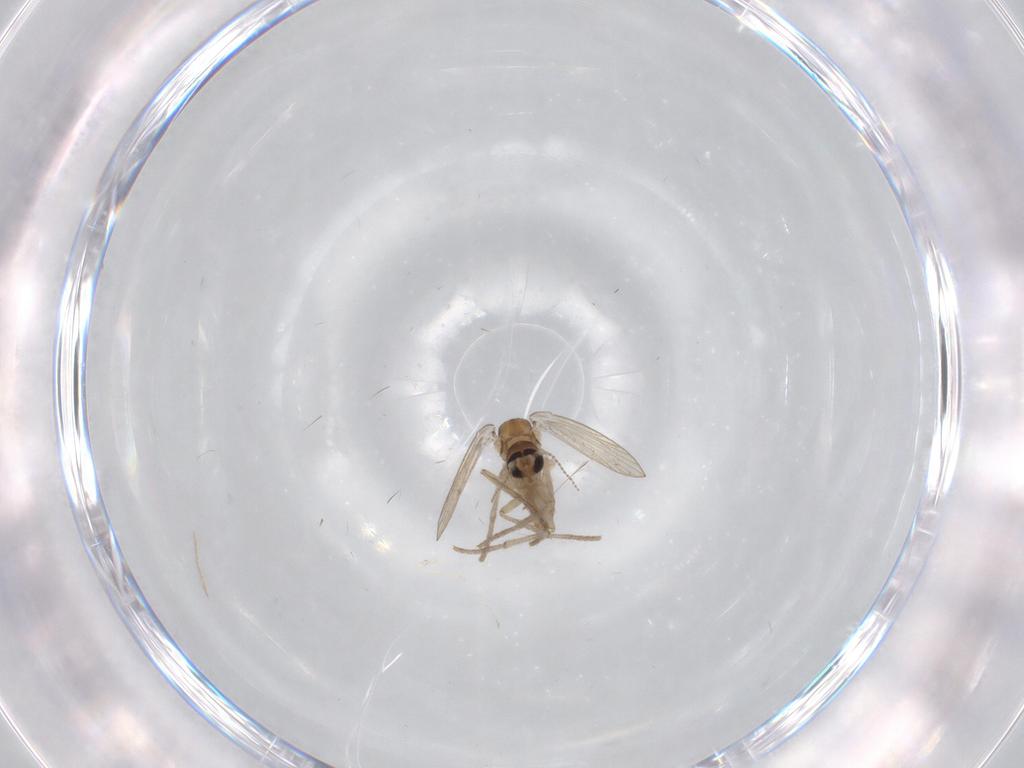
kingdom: Animalia
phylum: Arthropoda
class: Insecta
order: Diptera
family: Psychodidae
